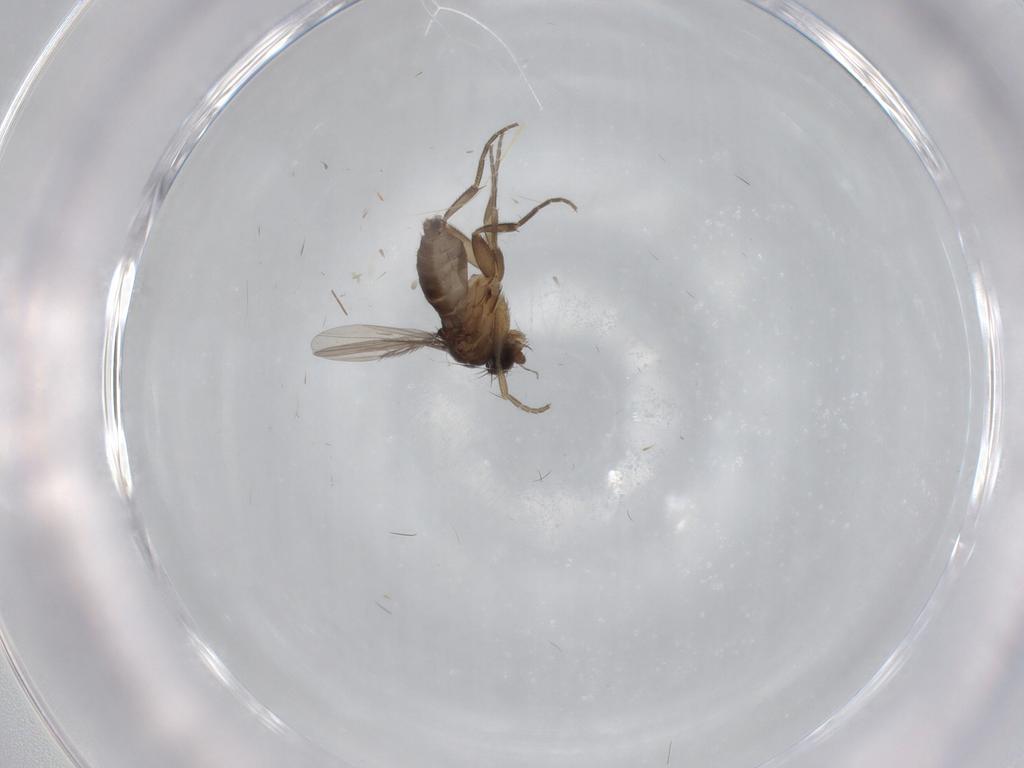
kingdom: Animalia
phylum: Arthropoda
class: Insecta
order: Diptera
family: Phoridae
